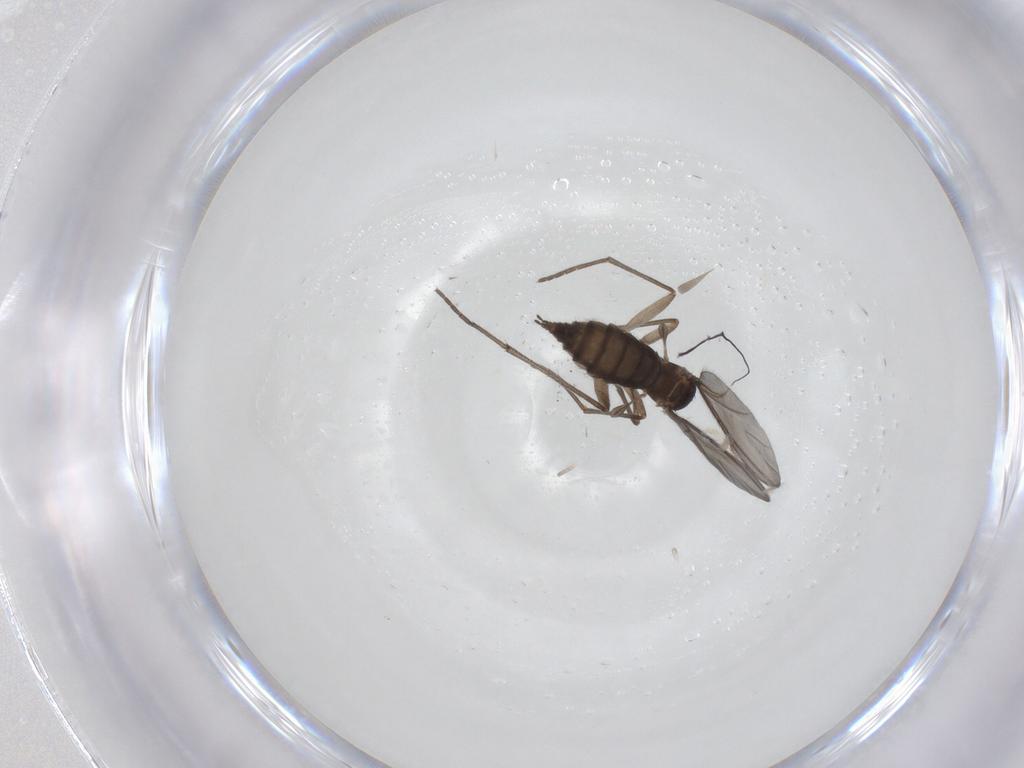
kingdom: Animalia
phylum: Arthropoda
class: Insecta
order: Diptera
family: Sciaridae
